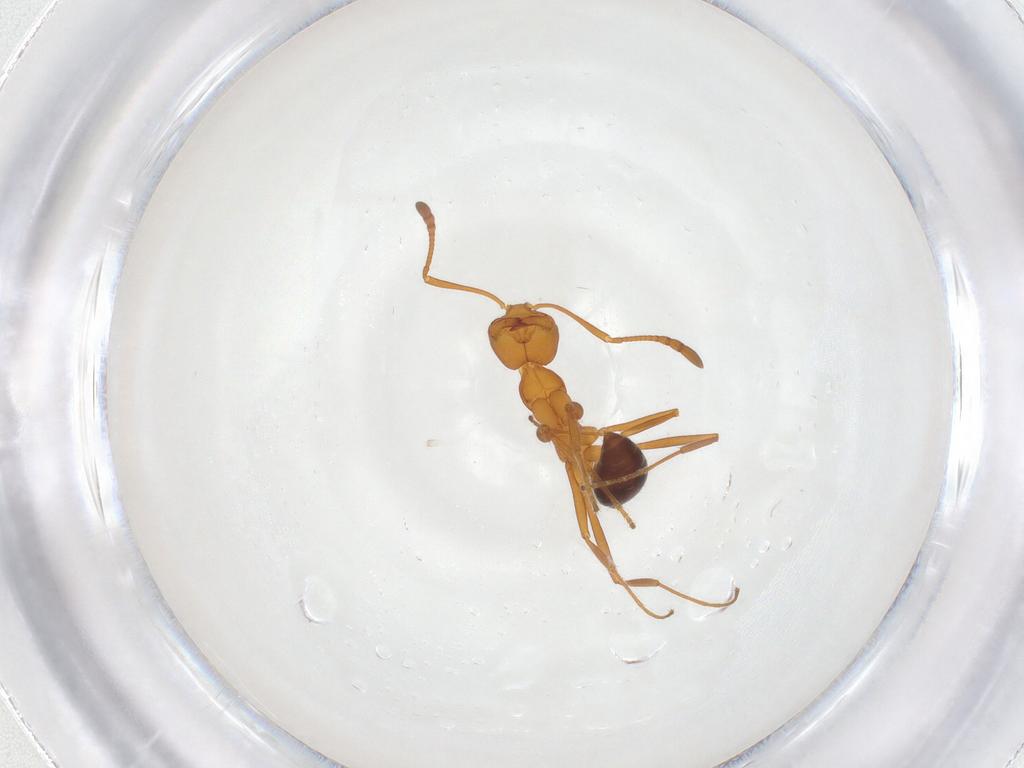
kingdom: Animalia
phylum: Arthropoda
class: Insecta
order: Hymenoptera
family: Formicidae
